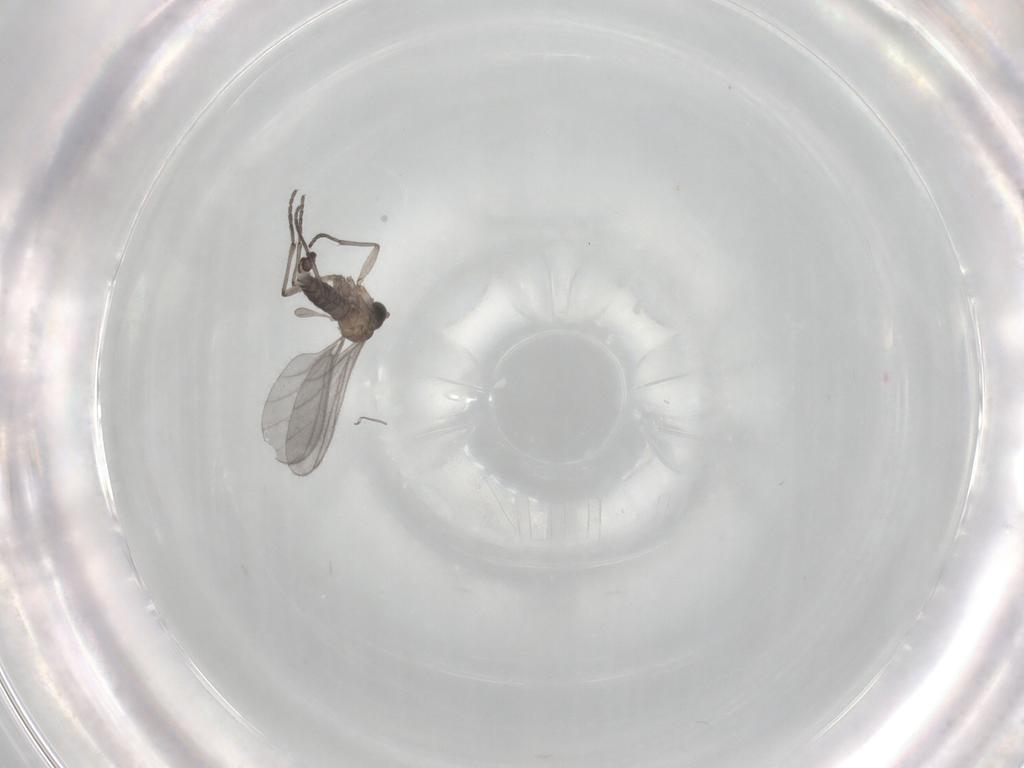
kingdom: Animalia
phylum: Arthropoda
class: Insecta
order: Diptera
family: Sciaridae
